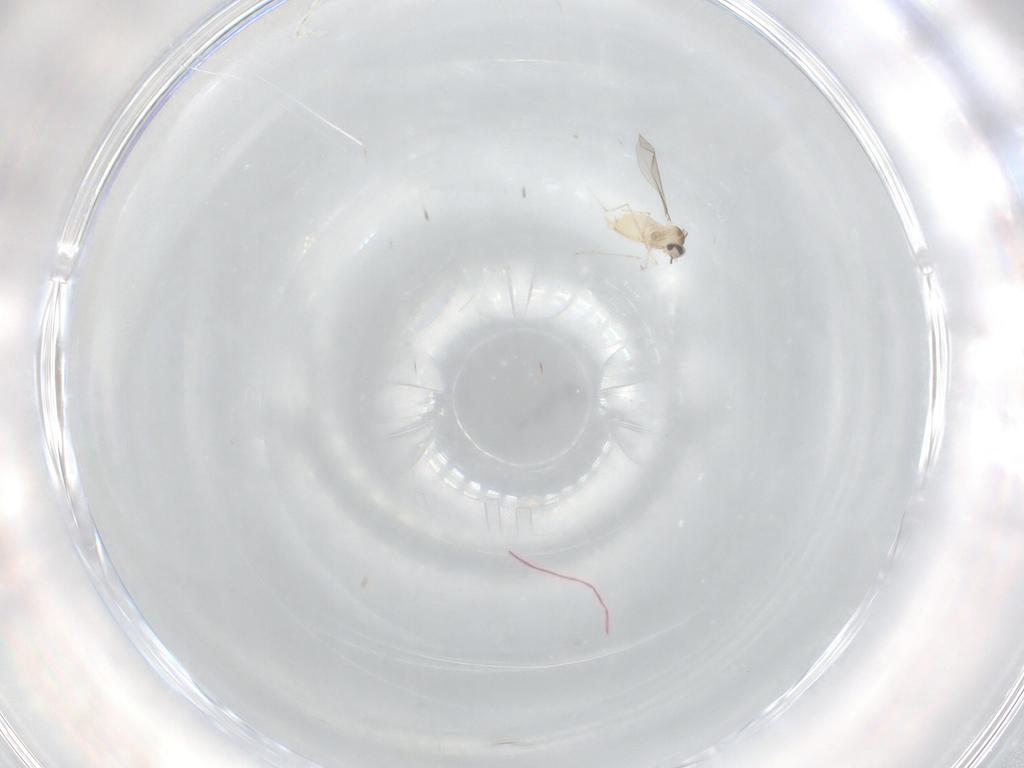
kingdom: Animalia
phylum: Arthropoda
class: Insecta
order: Diptera
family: Cecidomyiidae
